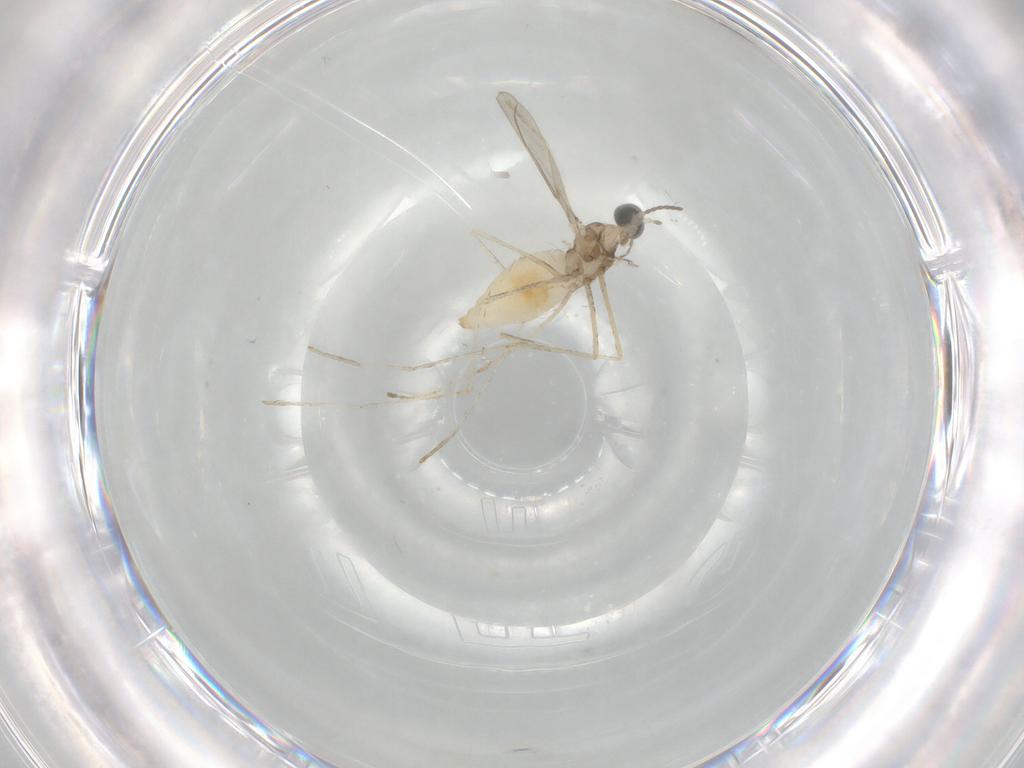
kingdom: Animalia
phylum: Arthropoda
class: Insecta
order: Diptera
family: Cecidomyiidae
